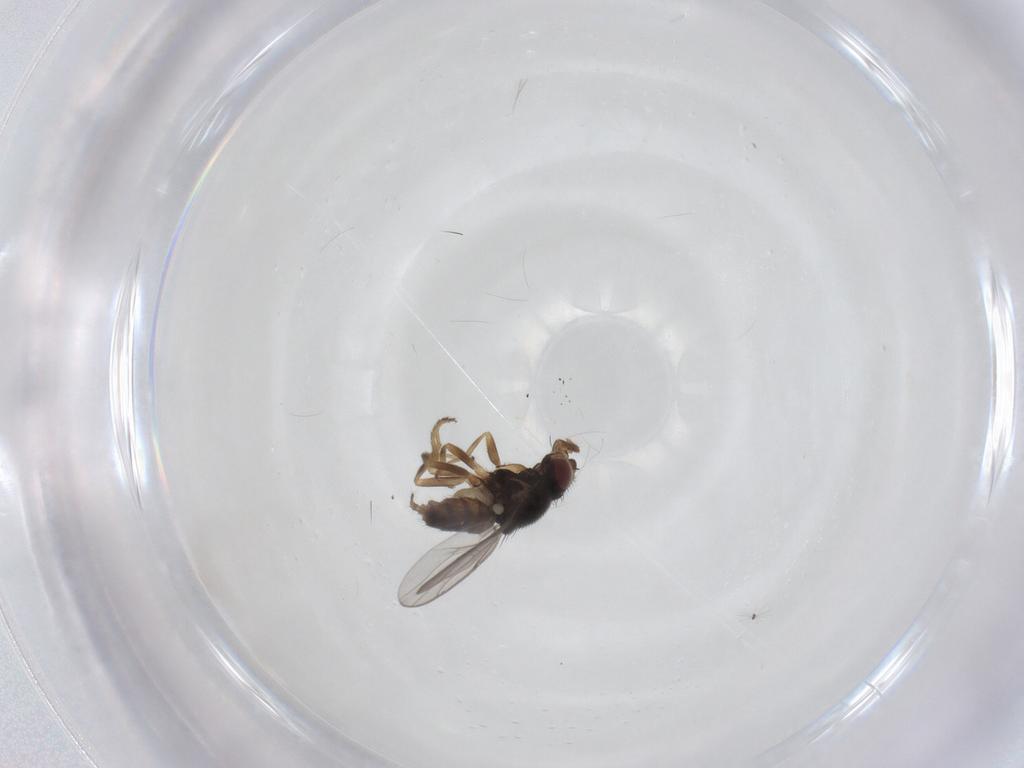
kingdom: Animalia
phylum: Arthropoda
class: Insecta
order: Diptera
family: Chloropidae
